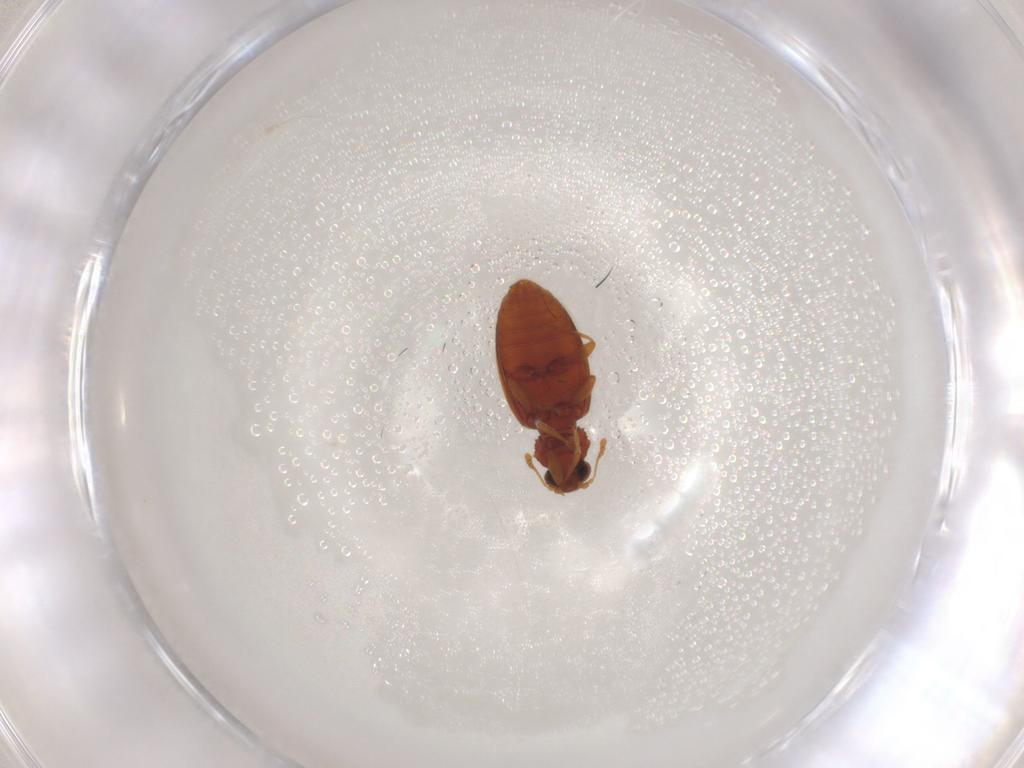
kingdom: Animalia
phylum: Arthropoda
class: Insecta
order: Coleoptera
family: Latridiidae
